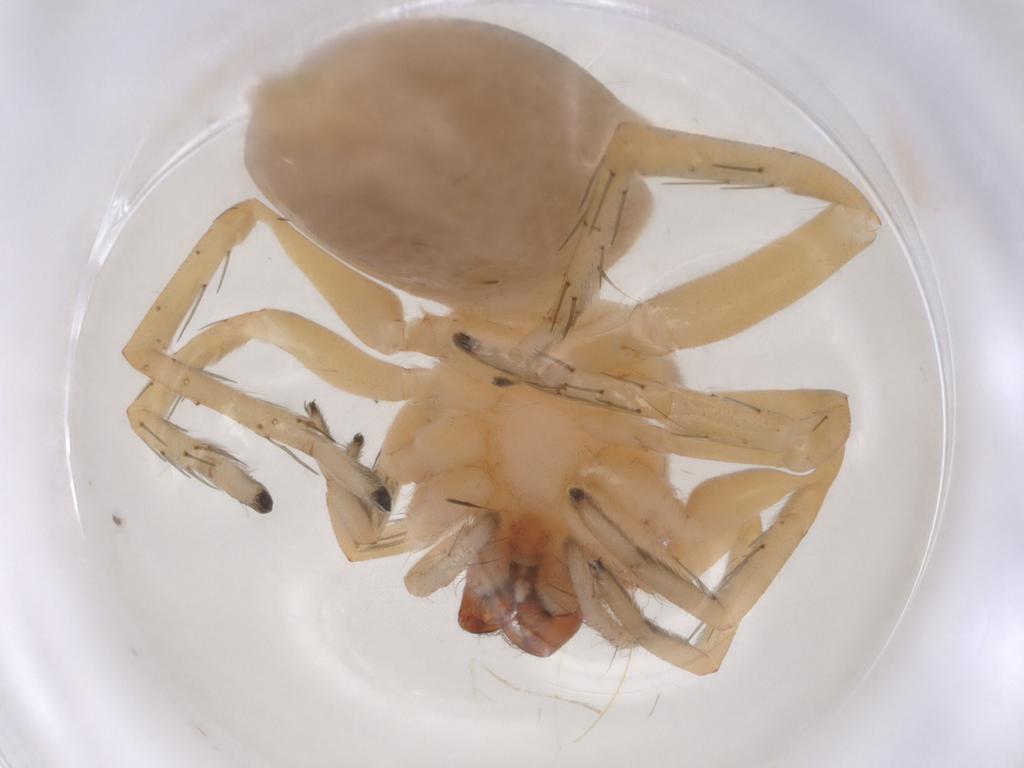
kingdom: Animalia
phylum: Arthropoda
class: Arachnida
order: Araneae
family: Clubionidae
